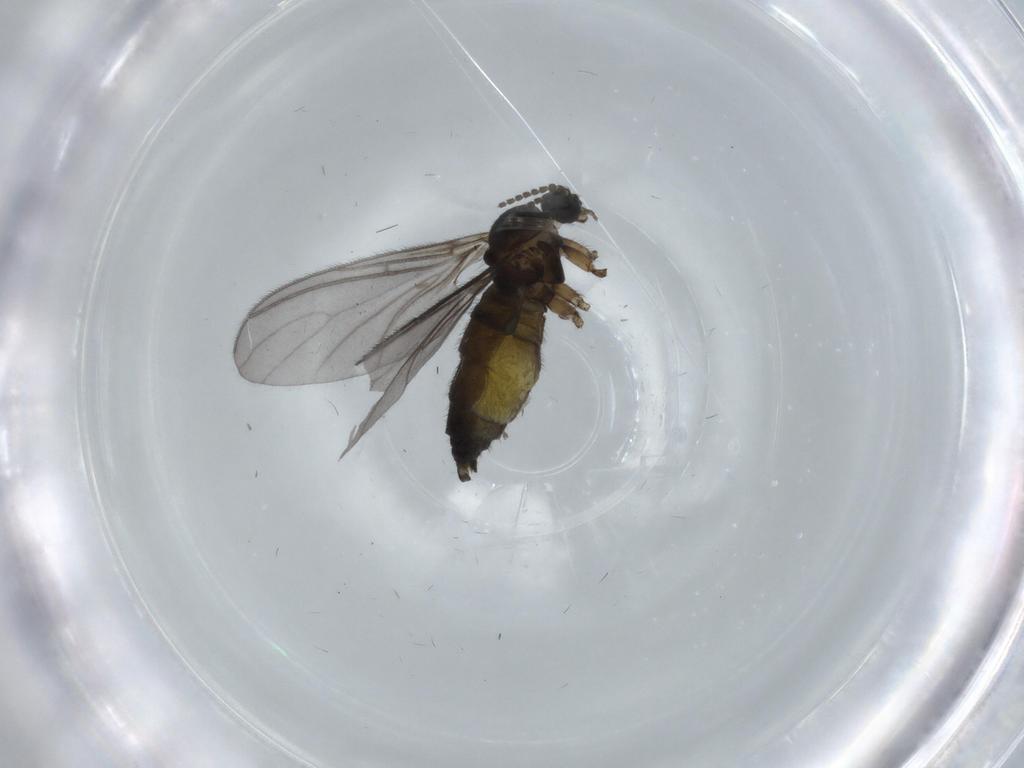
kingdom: Animalia
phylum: Arthropoda
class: Insecta
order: Diptera
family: Sciaridae
